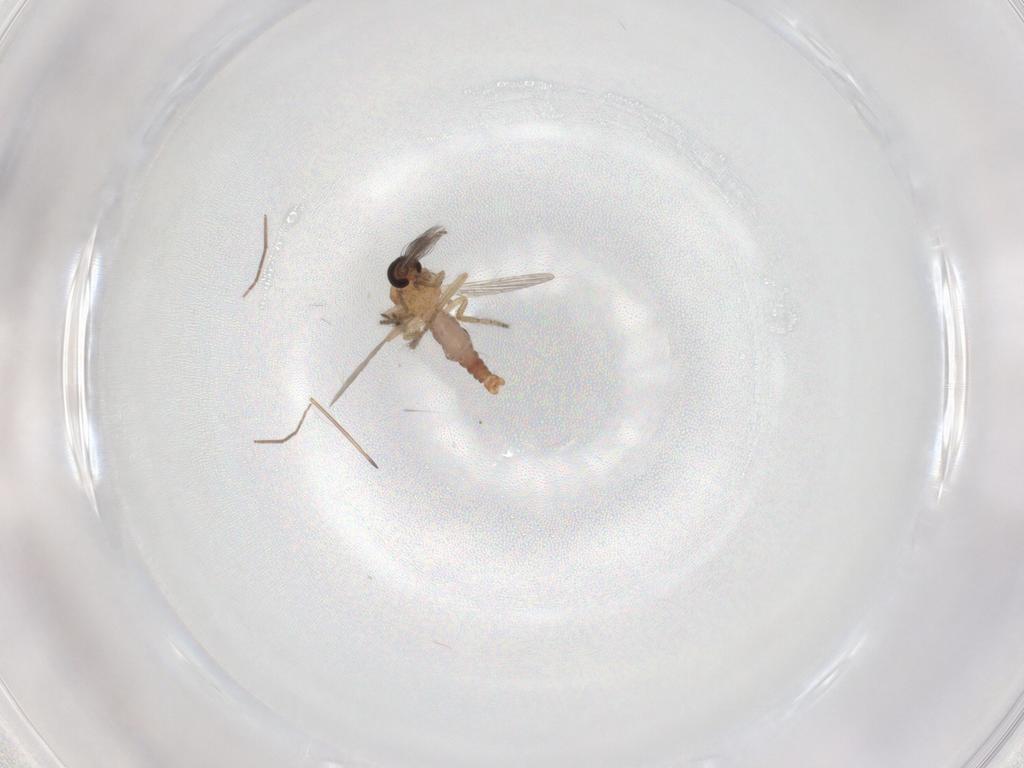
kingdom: Animalia
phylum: Arthropoda
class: Insecta
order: Diptera
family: Ceratopogonidae
